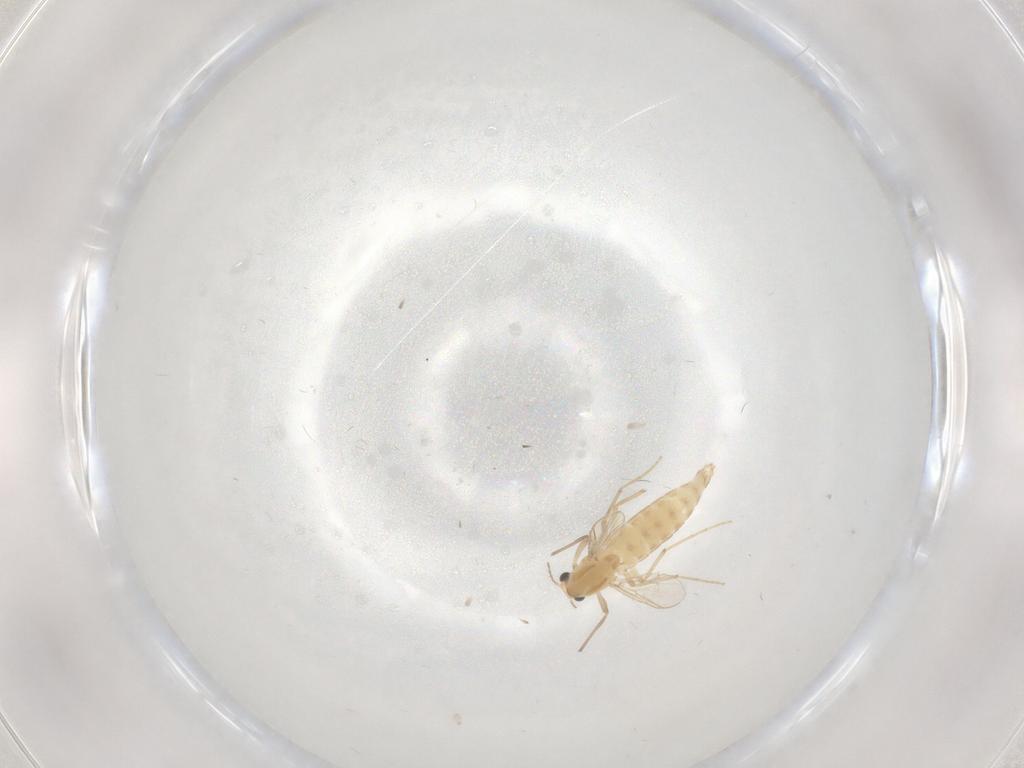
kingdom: Animalia
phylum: Arthropoda
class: Insecta
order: Diptera
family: Chironomidae
